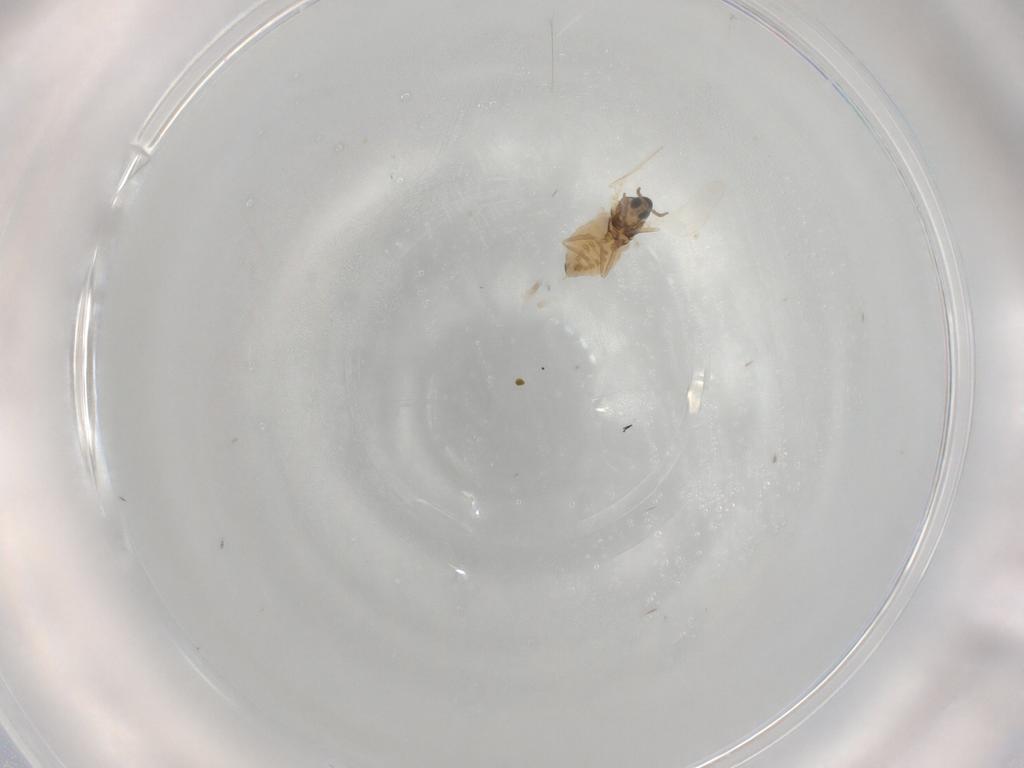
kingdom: Animalia
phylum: Arthropoda
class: Insecta
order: Diptera
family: Cecidomyiidae
